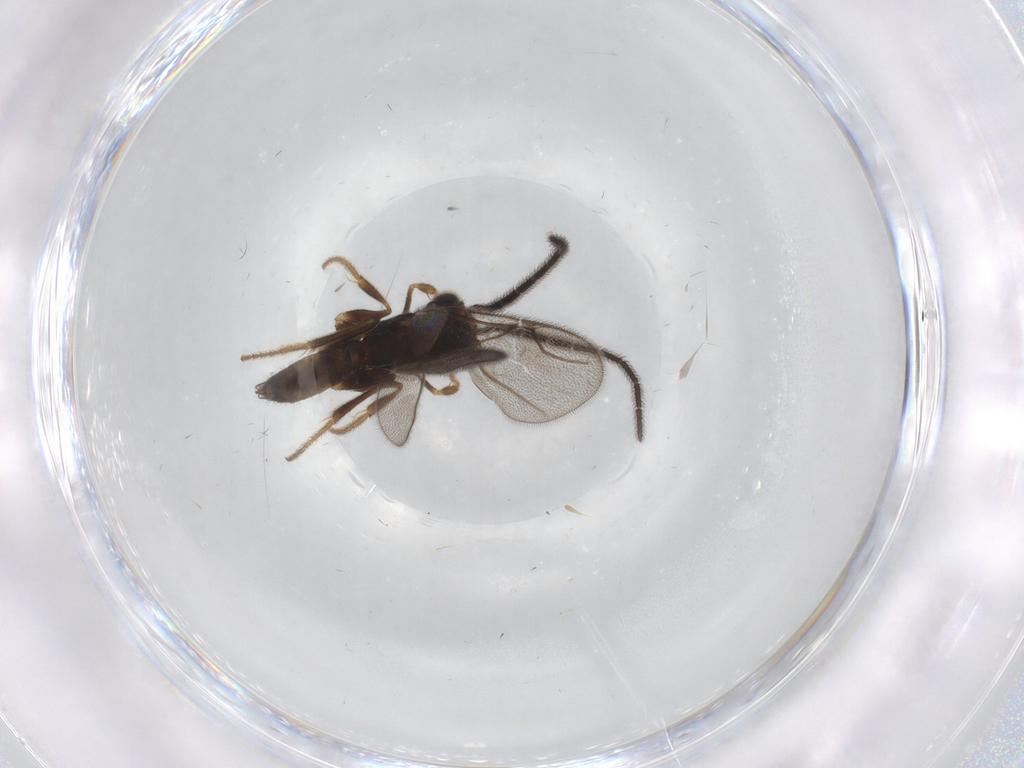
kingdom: Animalia
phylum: Arthropoda
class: Insecta
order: Hymenoptera
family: Dryinidae
